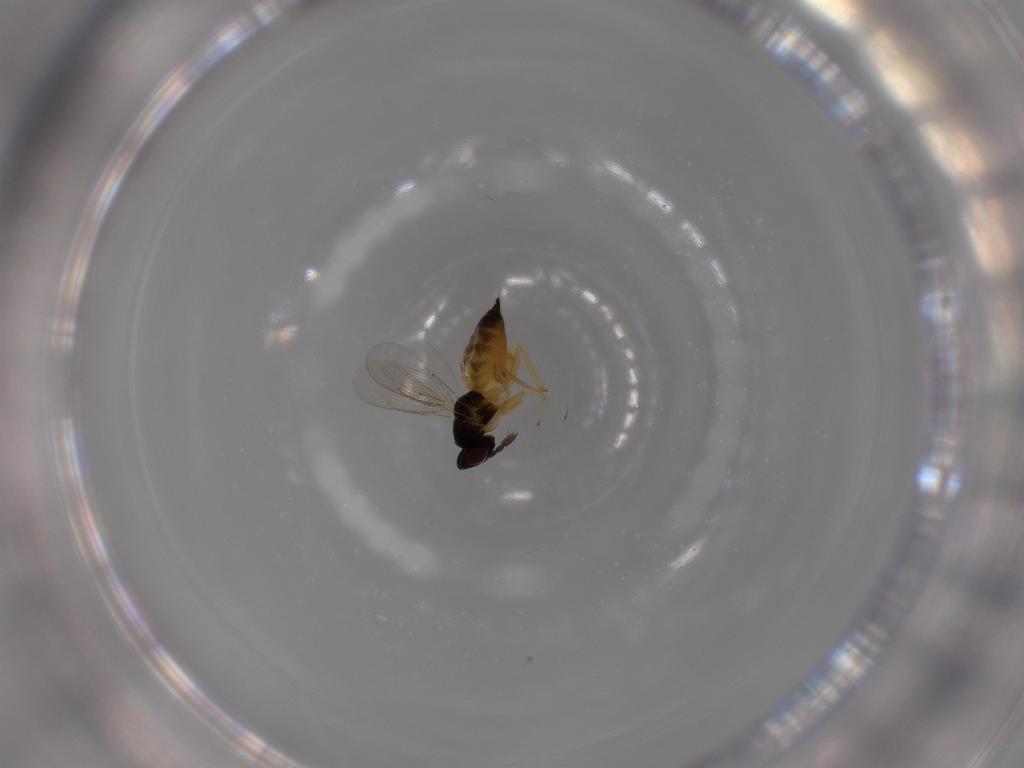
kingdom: Animalia
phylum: Arthropoda
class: Insecta
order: Hymenoptera
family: Eulophidae
